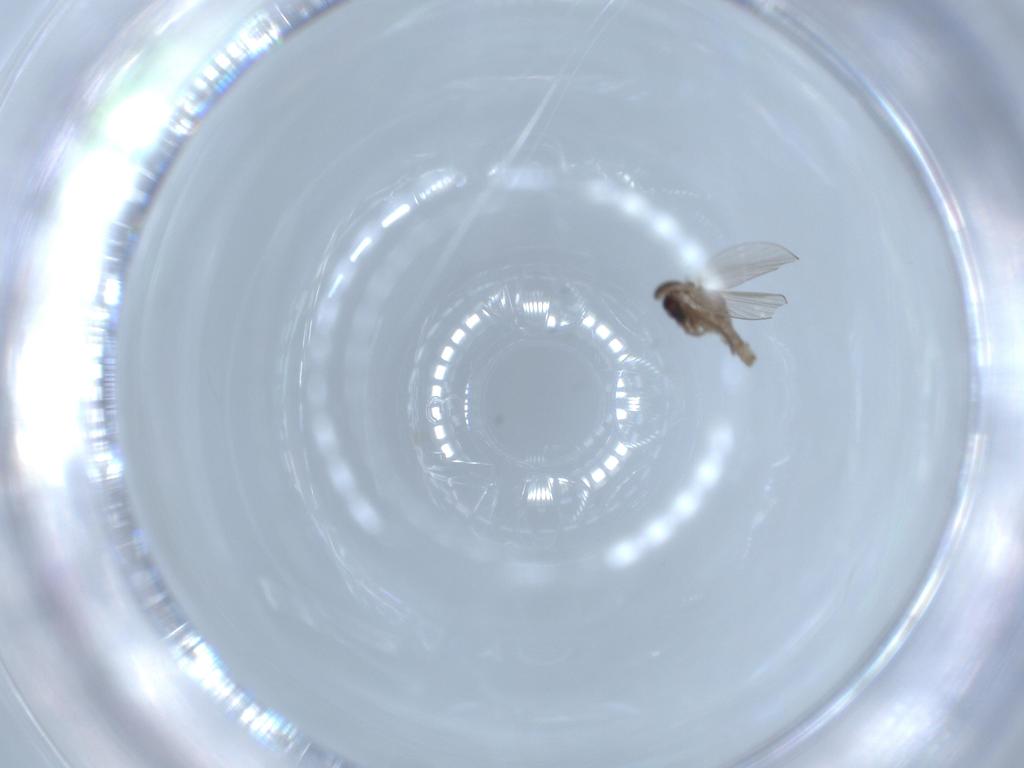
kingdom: Animalia
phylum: Arthropoda
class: Insecta
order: Diptera
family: Psychodidae
